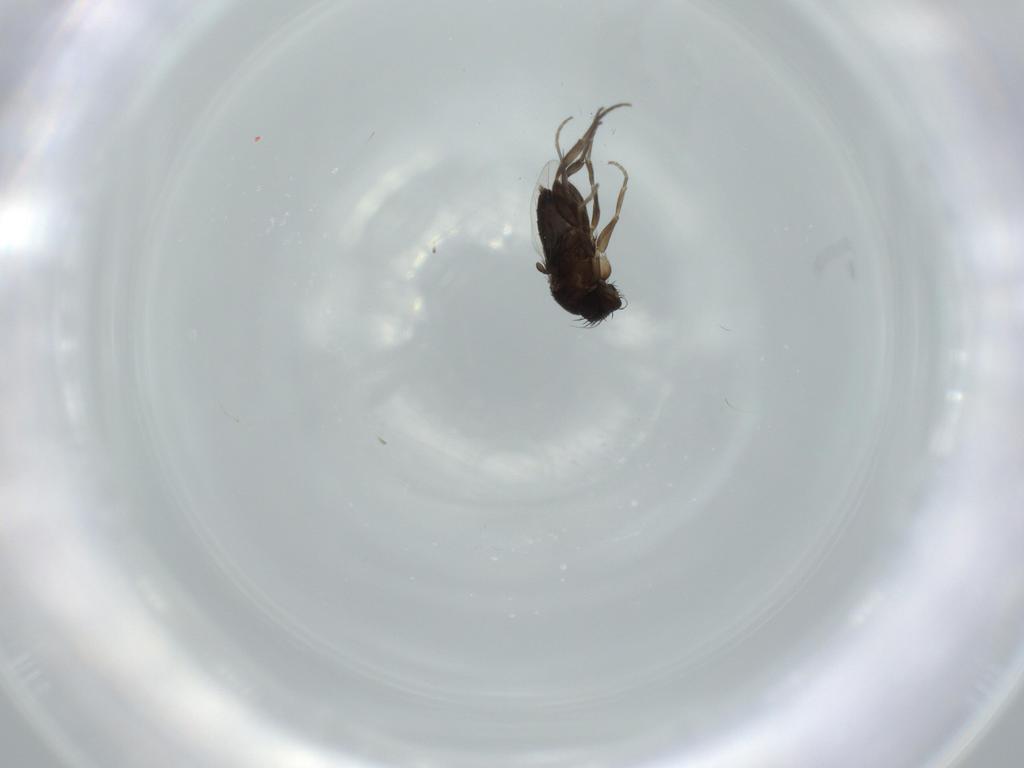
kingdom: Animalia
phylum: Arthropoda
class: Insecta
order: Diptera
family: Phoridae
